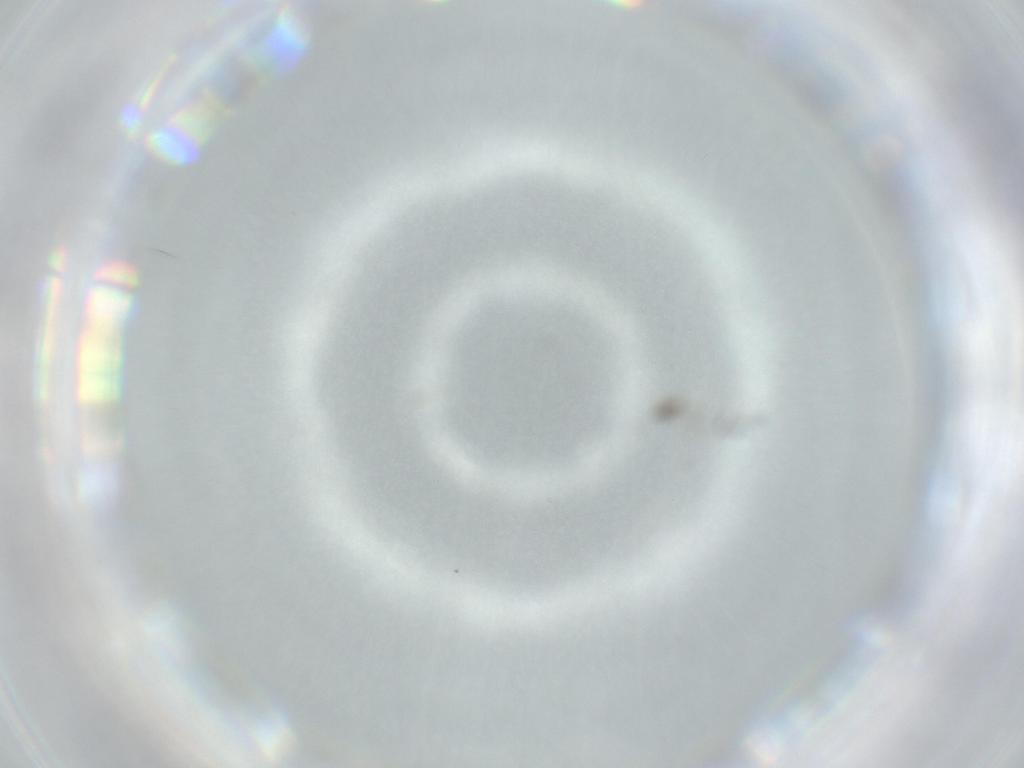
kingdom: Animalia
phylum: Arthropoda
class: Insecta
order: Diptera
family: Cecidomyiidae
